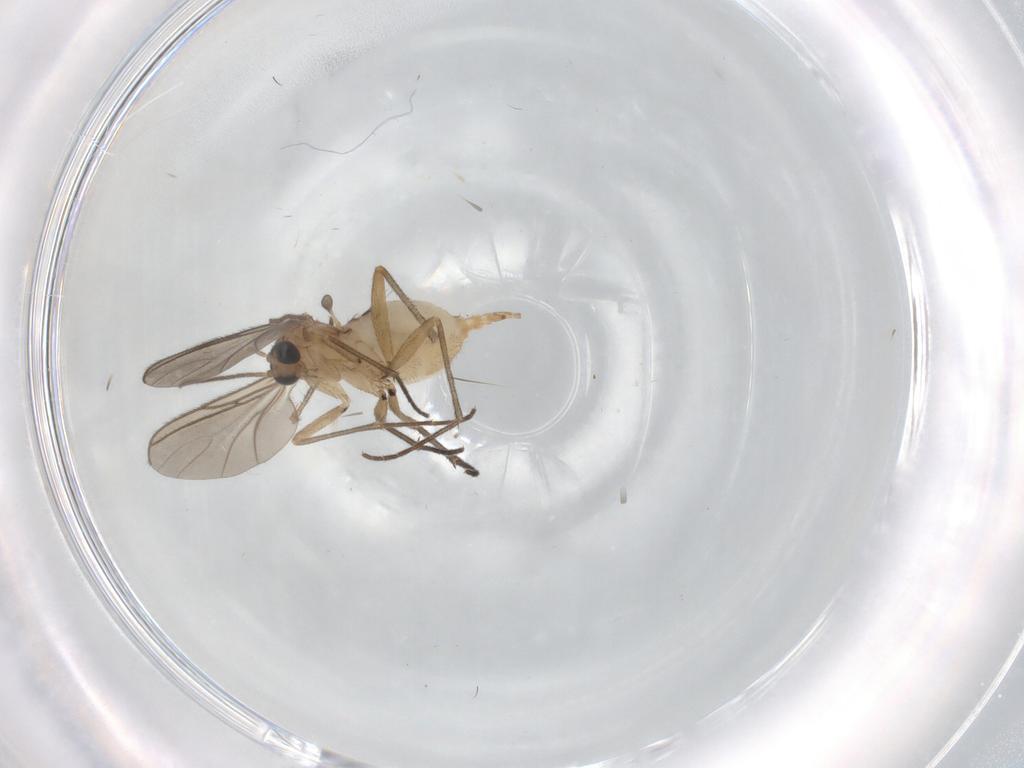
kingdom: Animalia
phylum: Arthropoda
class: Insecta
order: Diptera
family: Sciaridae
